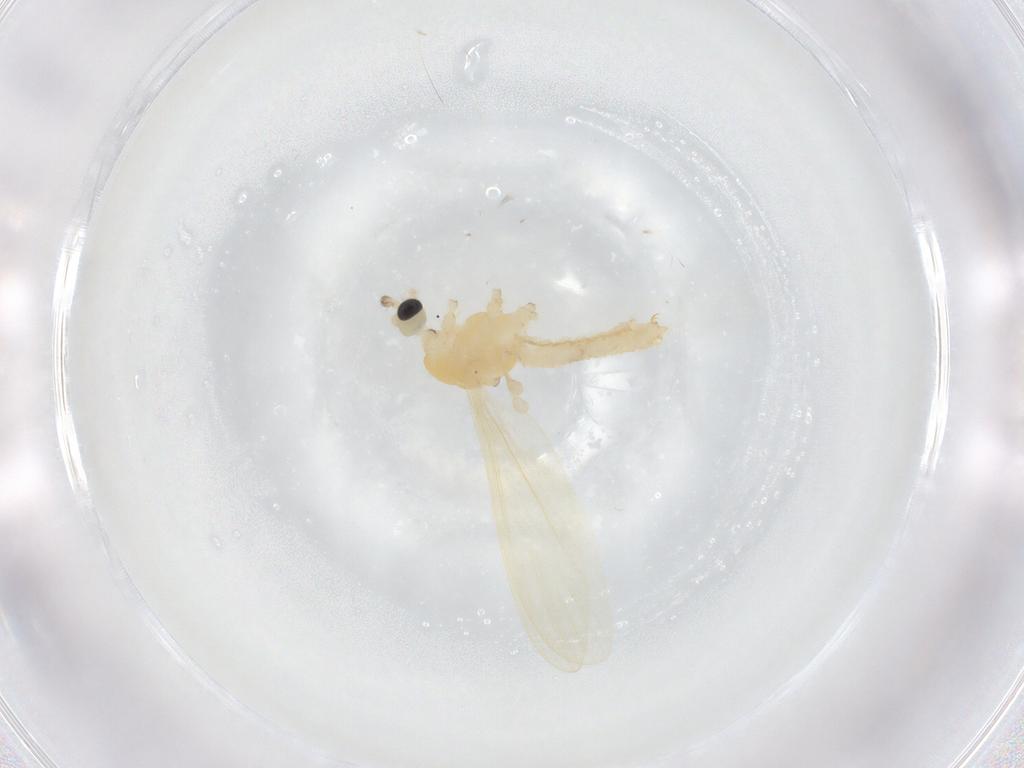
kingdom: Animalia
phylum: Arthropoda
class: Insecta
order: Diptera
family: Limoniidae
